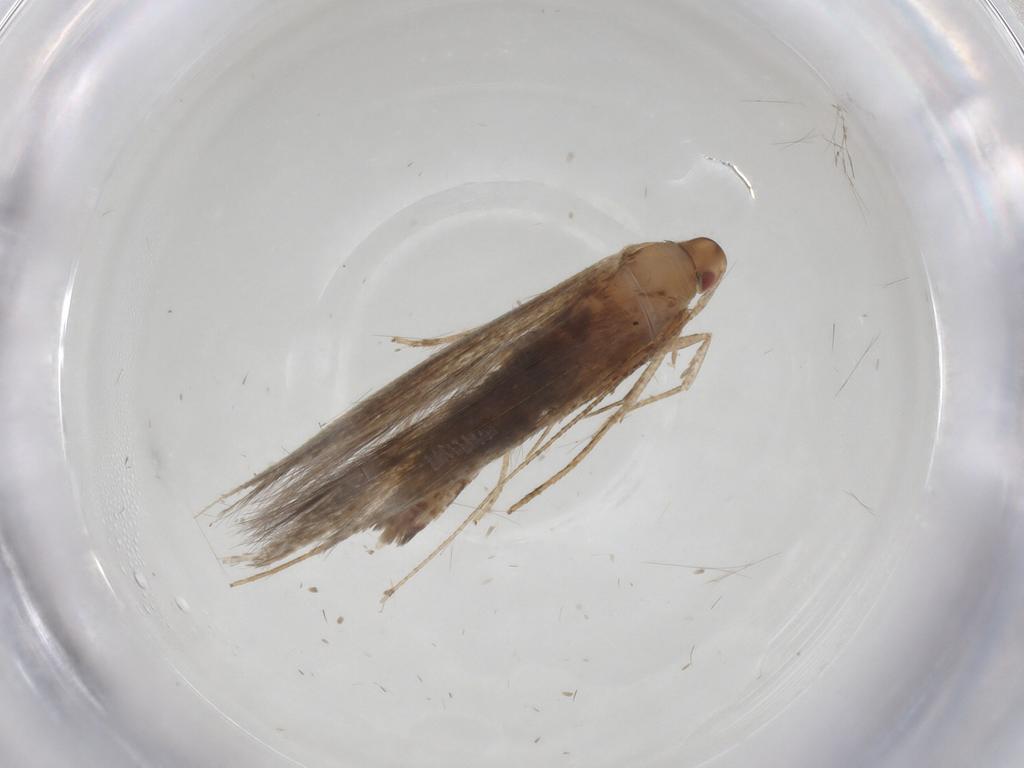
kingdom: Animalia
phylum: Arthropoda
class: Insecta
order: Lepidoptera
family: Cosmopterigidae
